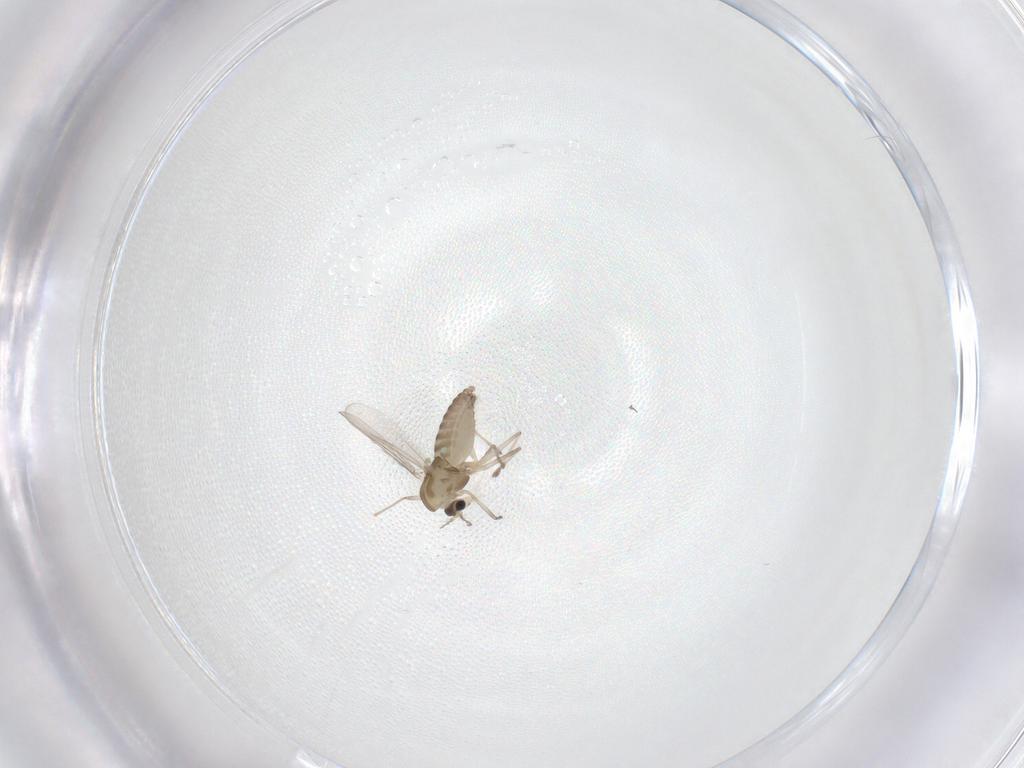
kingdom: Animalia
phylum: Arthropoda
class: Insecta
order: Diptera
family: Chironomidae
